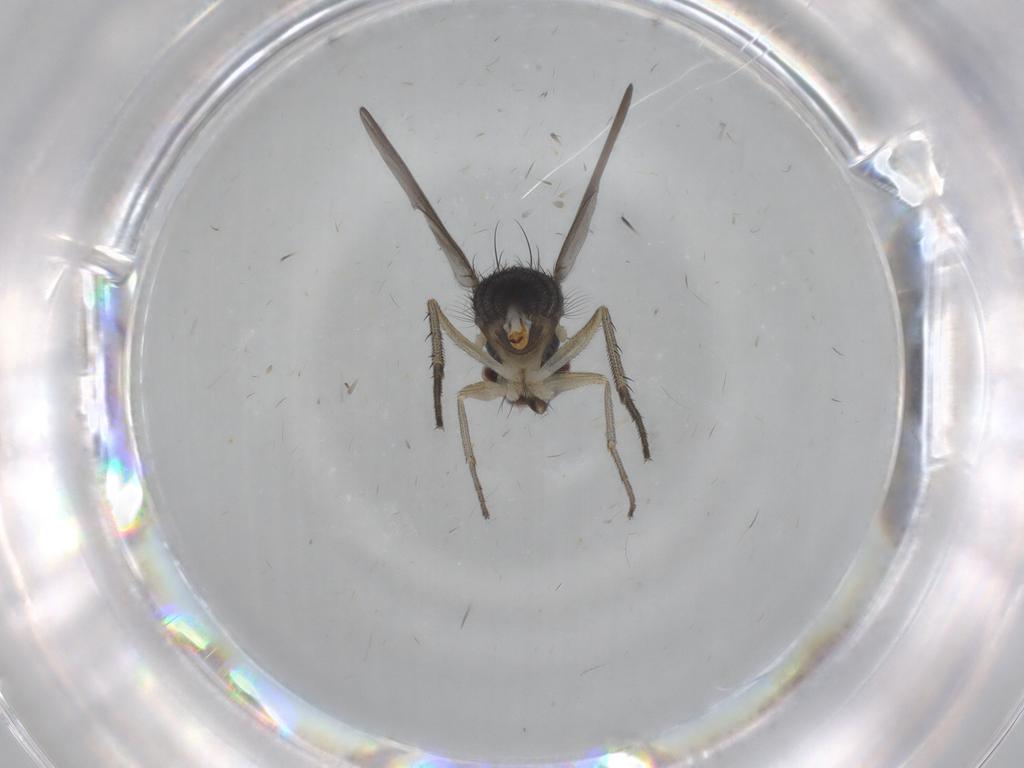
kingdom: Animalia
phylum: Arthropoda
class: Insecta
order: Diptera
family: Dolichopodidae
